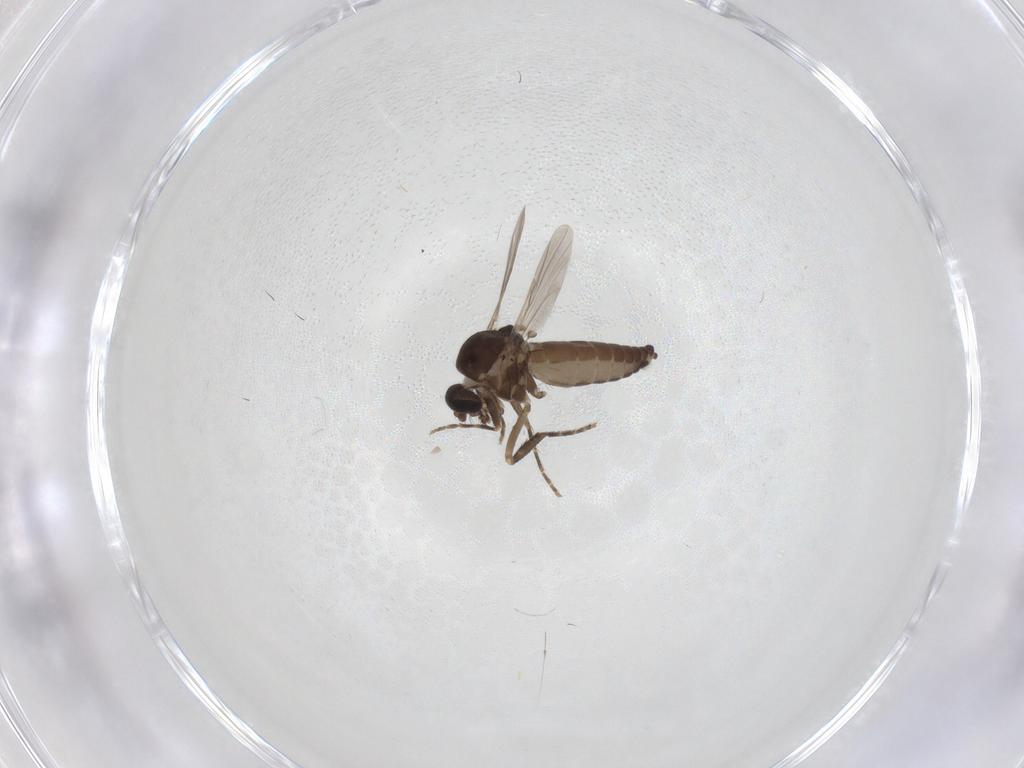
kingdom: Animalia
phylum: Arthropoda
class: Insecta
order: Diptera
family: Ceratopogonidae
